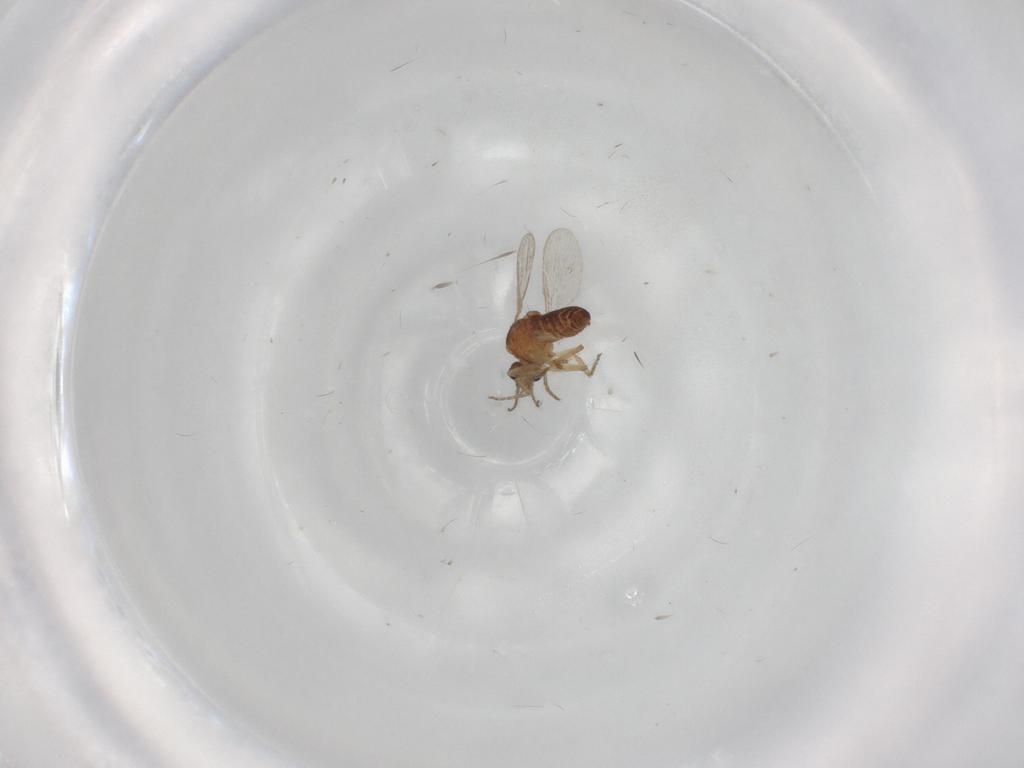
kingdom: Animalia
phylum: Arthropoda
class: Insecta
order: Diptera
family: Ceratopogonidae
